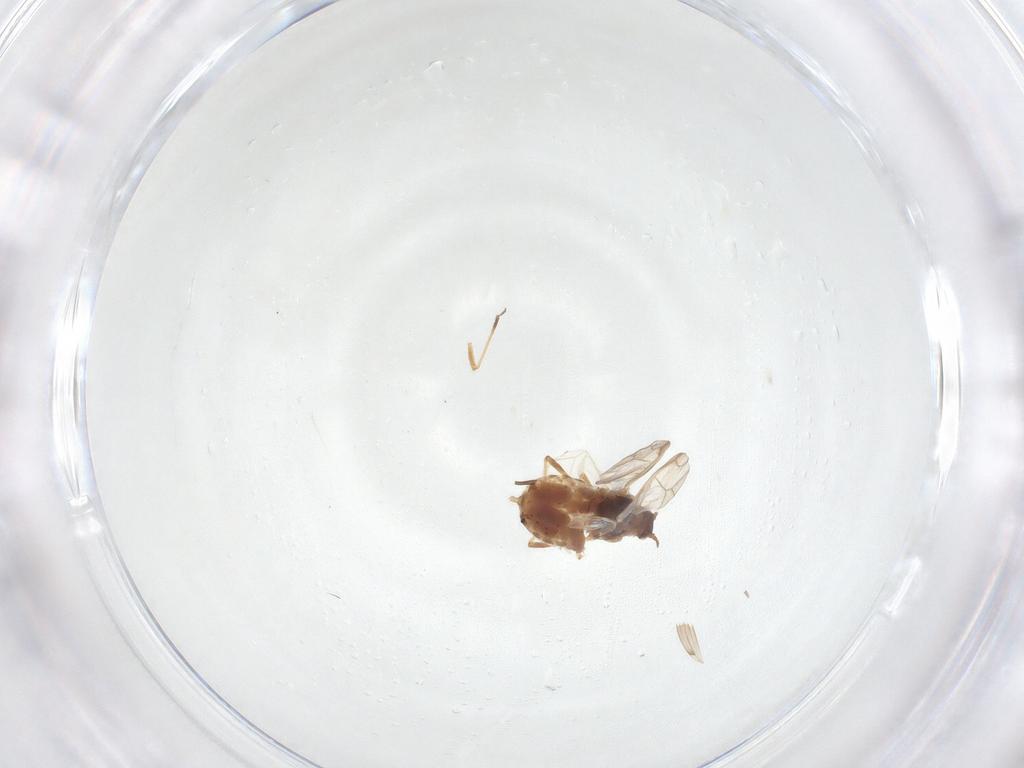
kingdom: Animalia
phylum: Arthropoda
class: Insecta
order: Hemiptera
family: Aphididae
